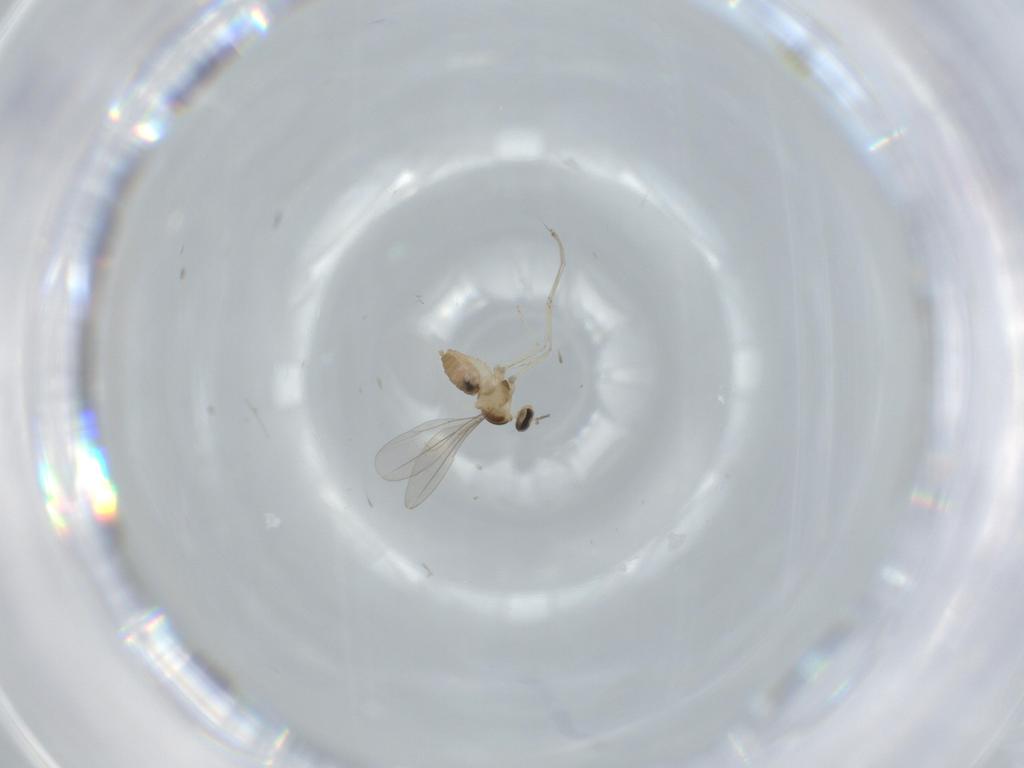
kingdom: Animalia
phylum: Arthropoda
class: Insecta
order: Diptera
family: Cecidomyiidae
